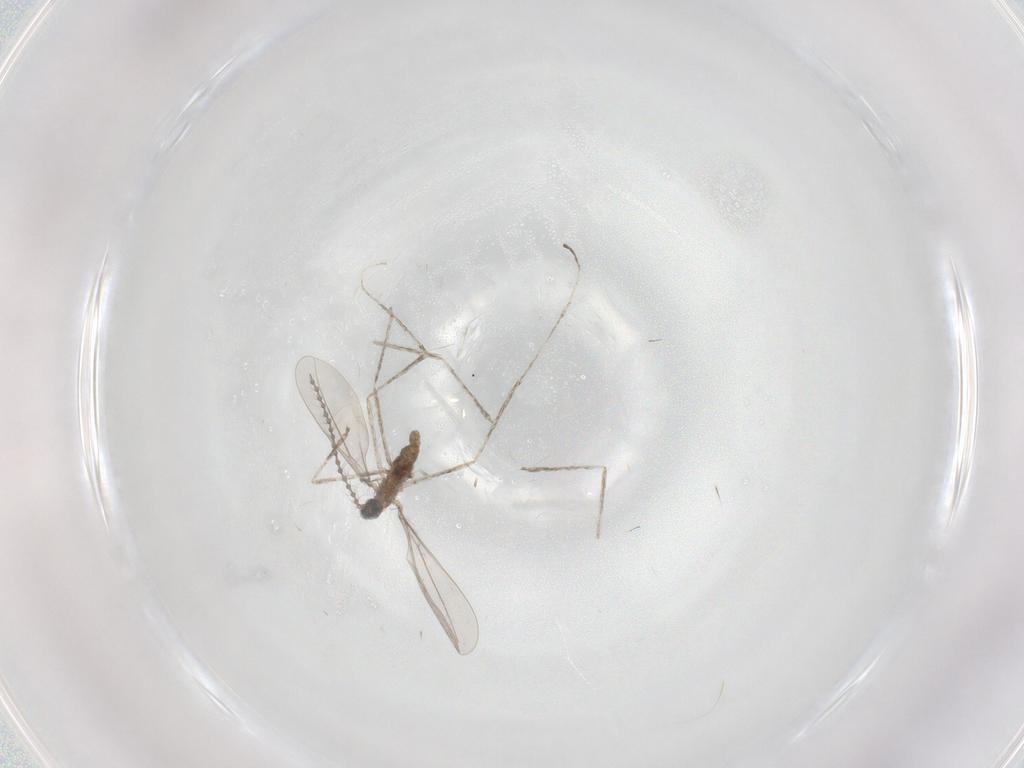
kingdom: Animalia
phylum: Arthropoda
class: Insecta
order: Diptera
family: Cecidomyiidae
